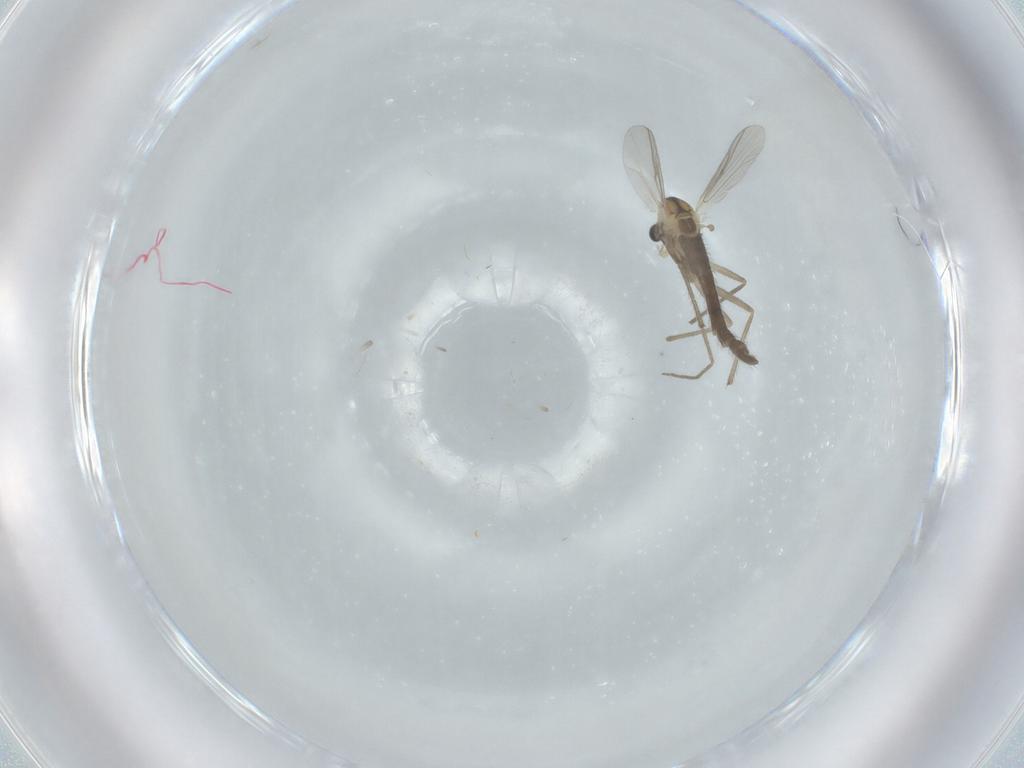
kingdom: Animalia
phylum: Arthropoda
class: Insecta
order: Diptera
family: Chironomidae
